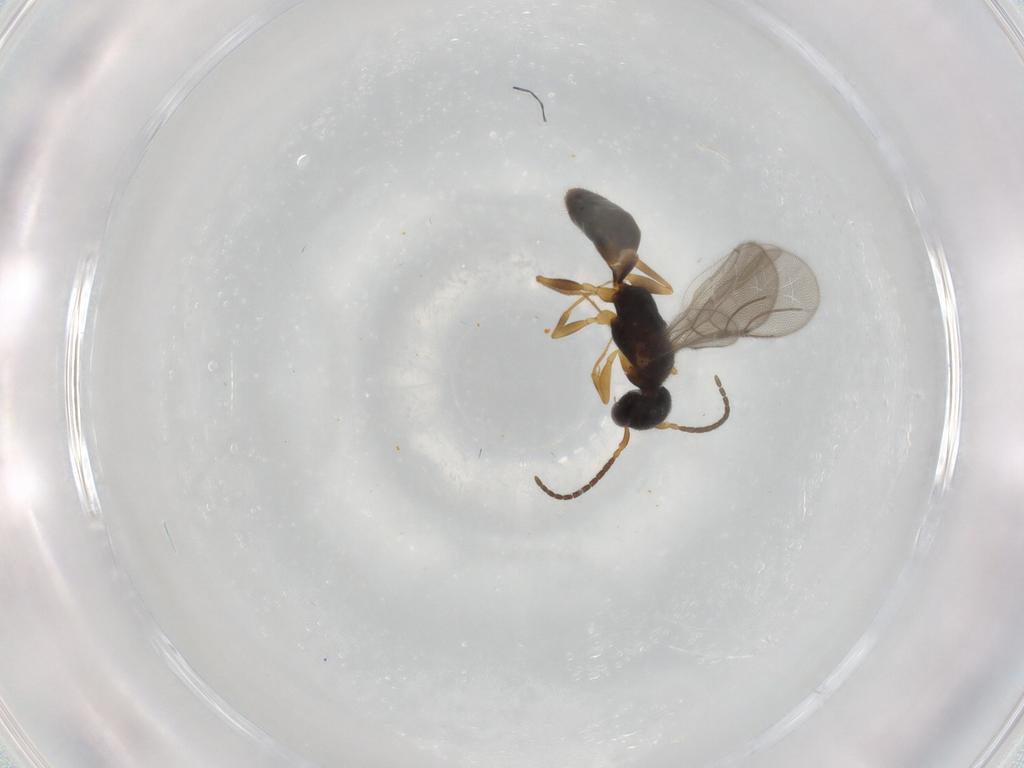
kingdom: Animalia
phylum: Arthropoda
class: Insecta
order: Hymenoptera
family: Bethylidae
